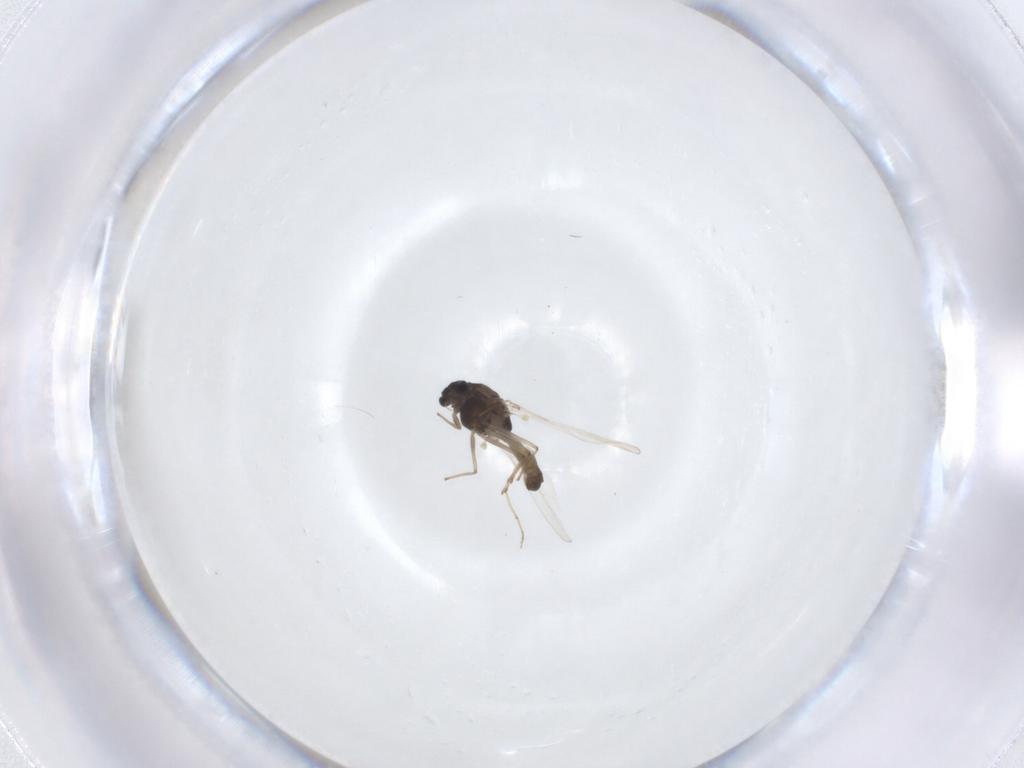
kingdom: Animalia
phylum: Arthropoda
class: Insecta
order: Diptera
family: Chironomidae
